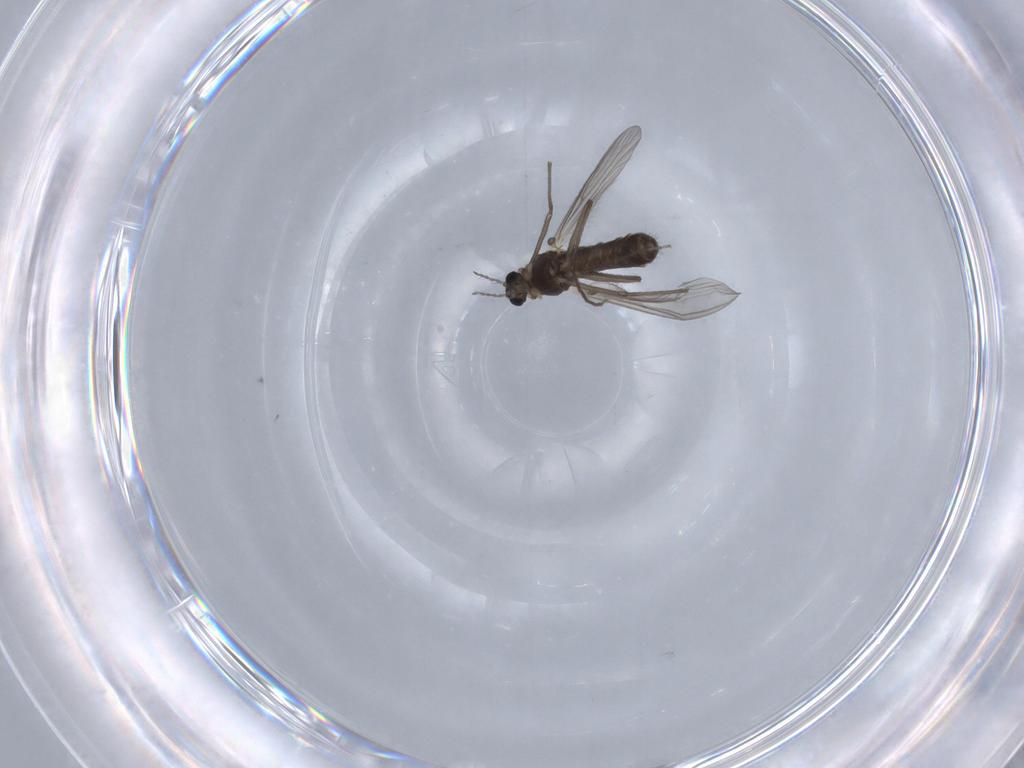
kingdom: Animalia
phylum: Arthropoda
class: Insecta
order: Diptera
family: Chironomidae
